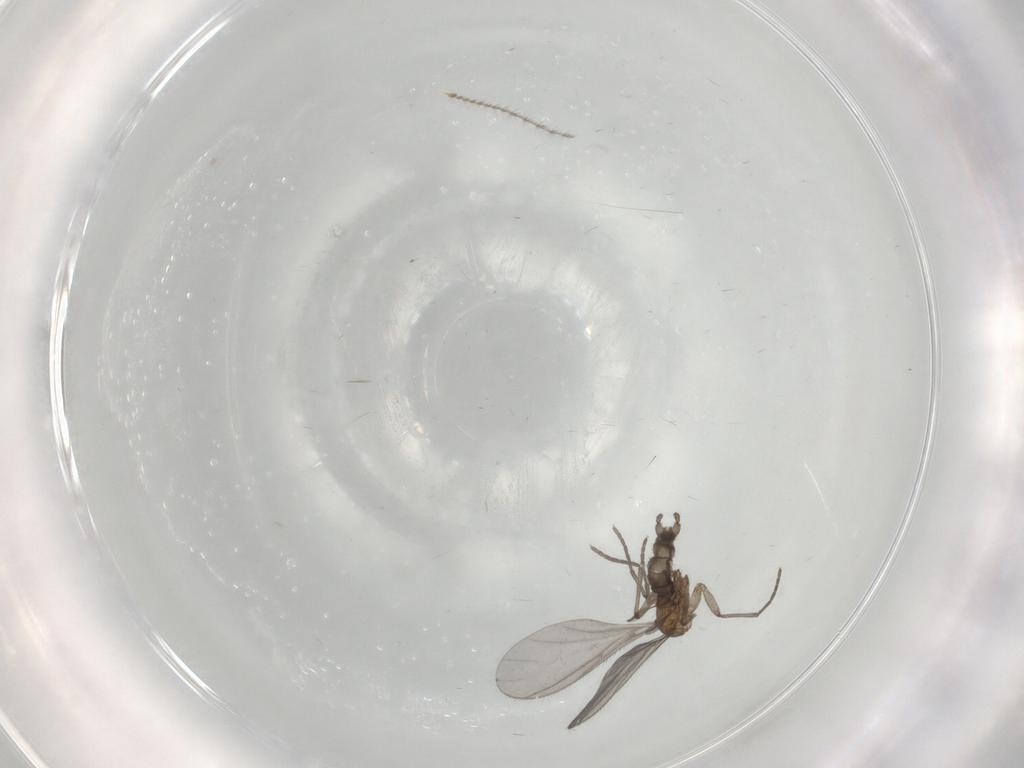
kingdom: Animalia
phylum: Arthropoda
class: Insecta
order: Diptera
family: Sciaridae
